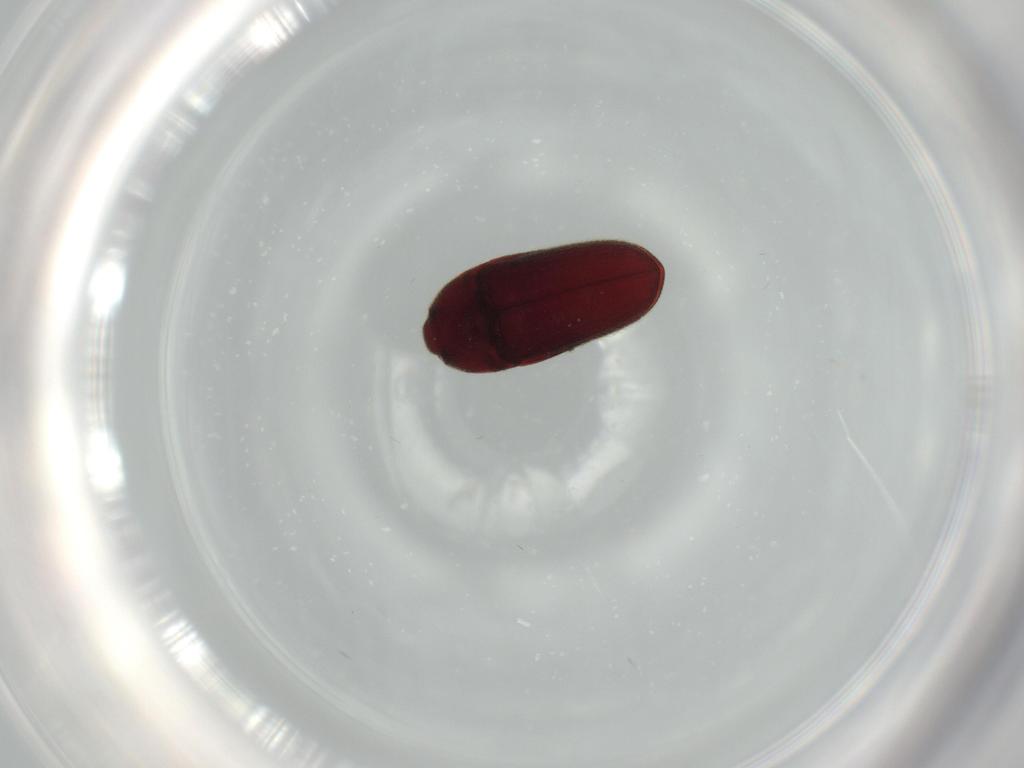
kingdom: Animalia
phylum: Arthropoda
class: Insecta
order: Coleoptera
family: Throscidae
